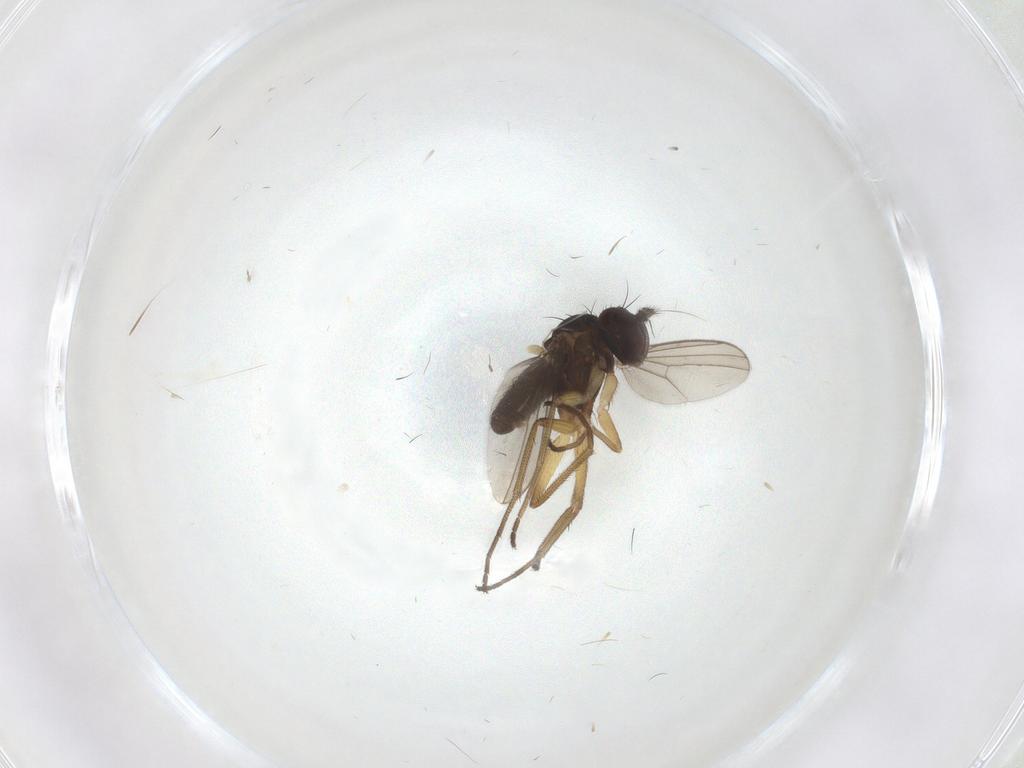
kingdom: Animalia
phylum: Arthropoda
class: Insecta
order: Diptera
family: Dolichopodidae
